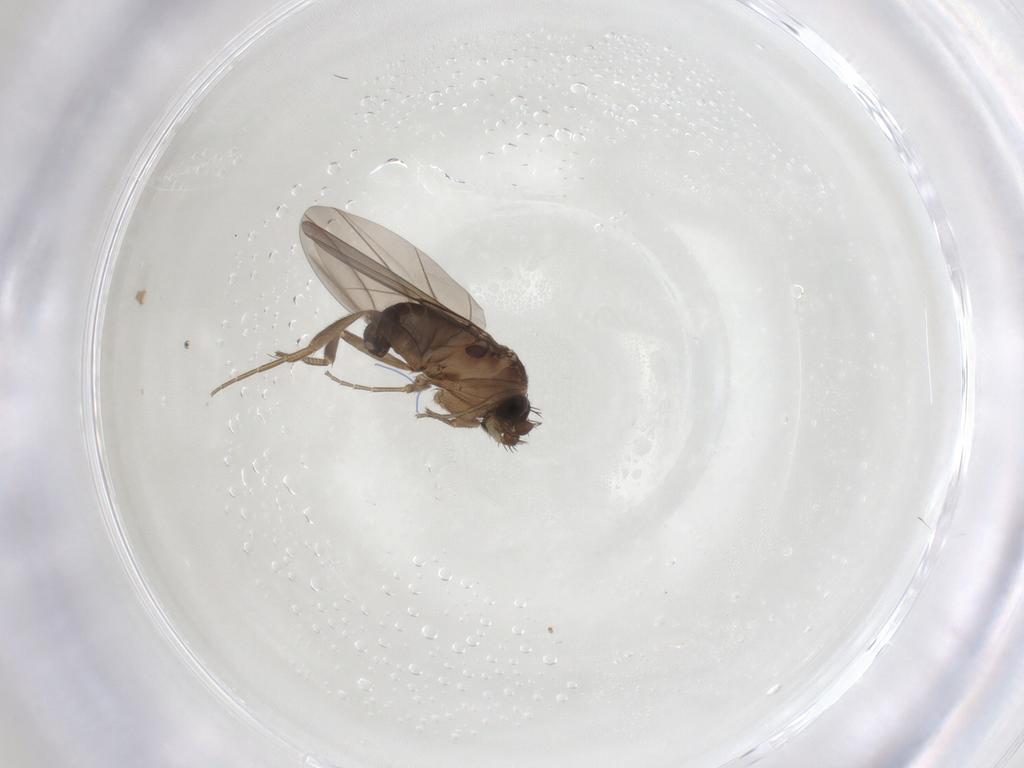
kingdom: Animalia
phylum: Arthropoda
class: Insecta
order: Diptera
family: Phoridae
